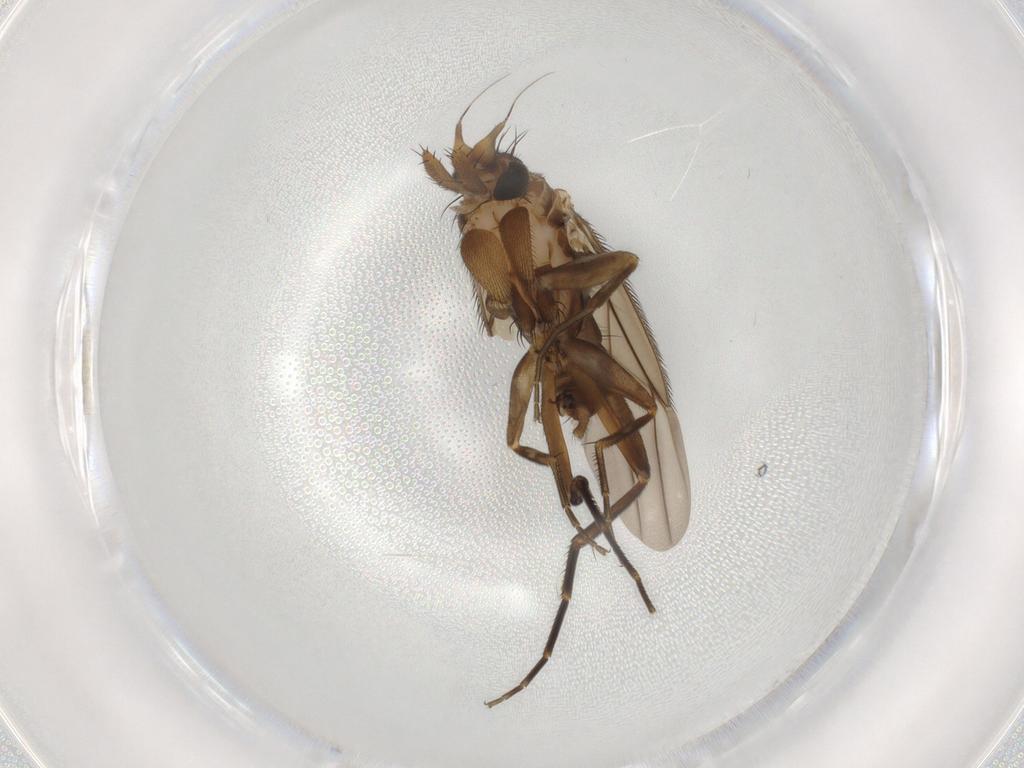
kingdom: Animalia
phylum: Arthropoda
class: Insecta
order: Diptera
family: Phoridae
